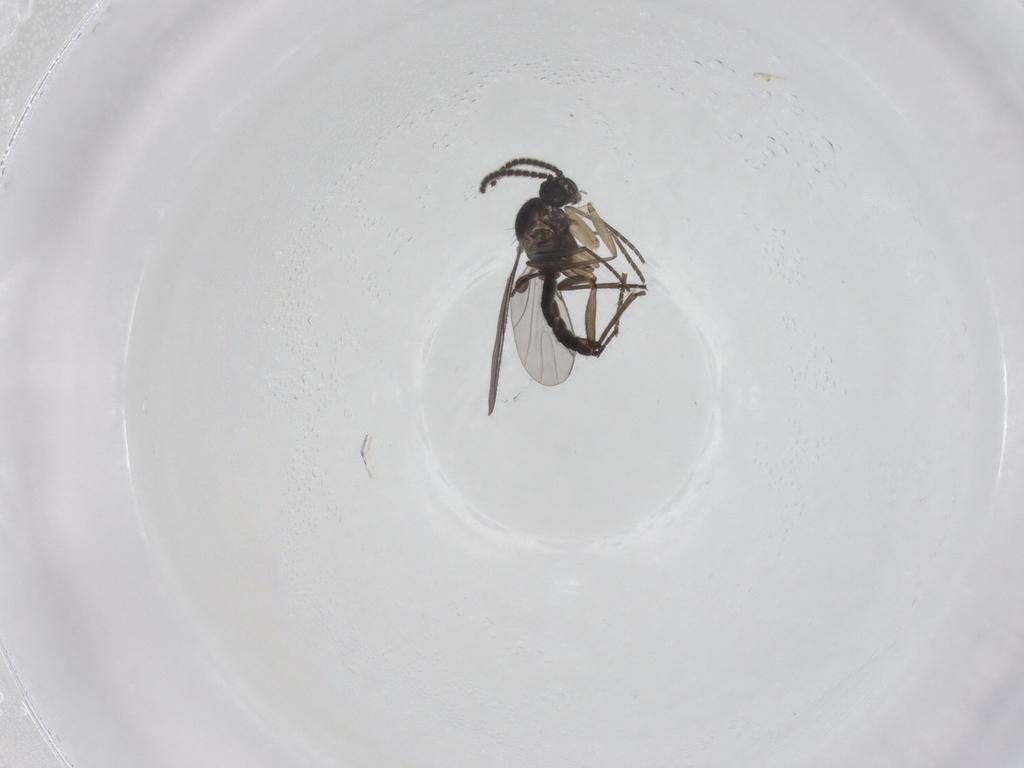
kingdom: Animalia
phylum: Arthropoda
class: Insecta
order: Diptera
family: Sciaridae
